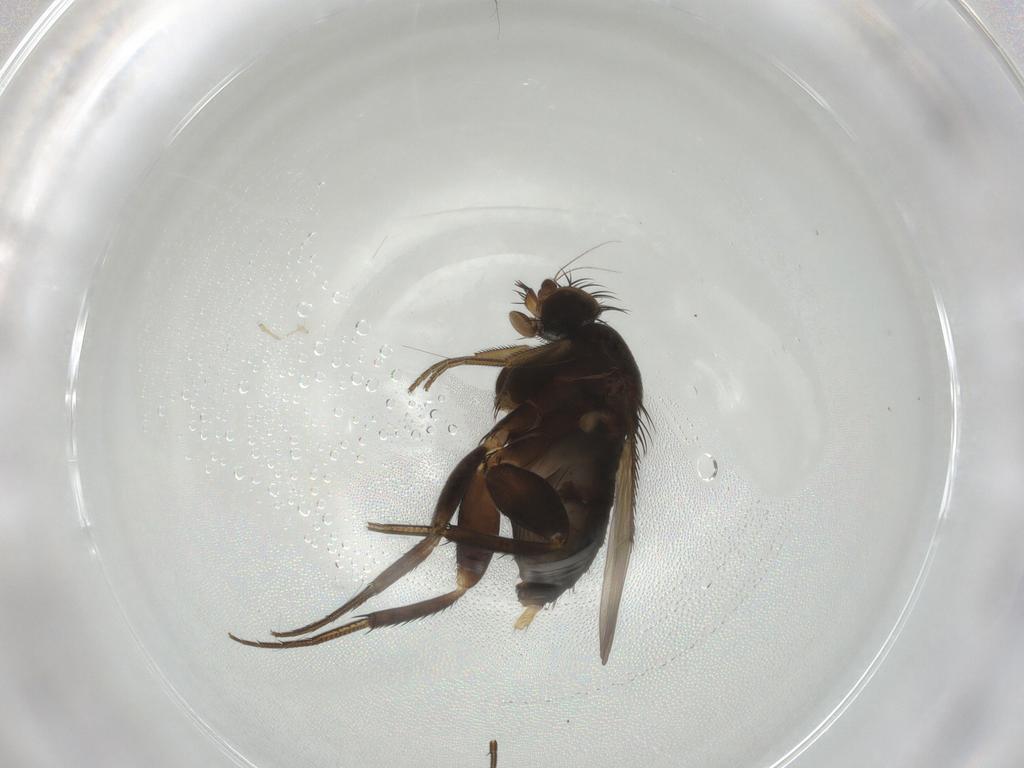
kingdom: Animalia
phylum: Arthropoda
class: Insecta
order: Diptera
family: Phoridae
